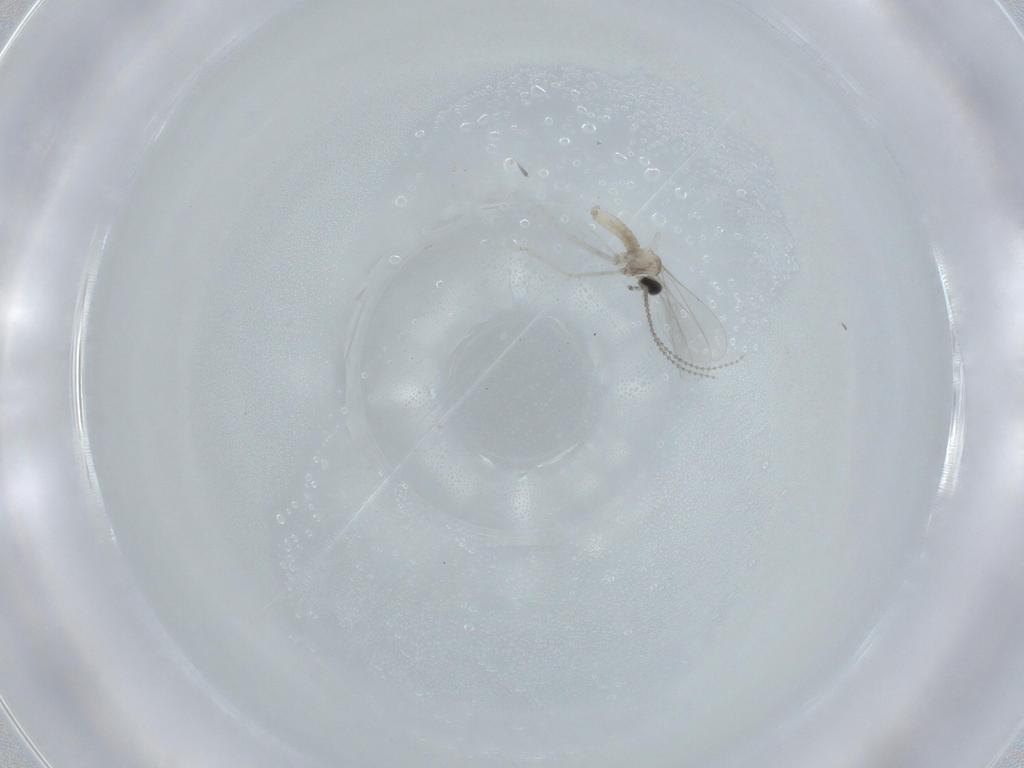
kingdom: Animalia
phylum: Arthropoda
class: Insecta
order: Diptera
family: Cecidomyiidae
